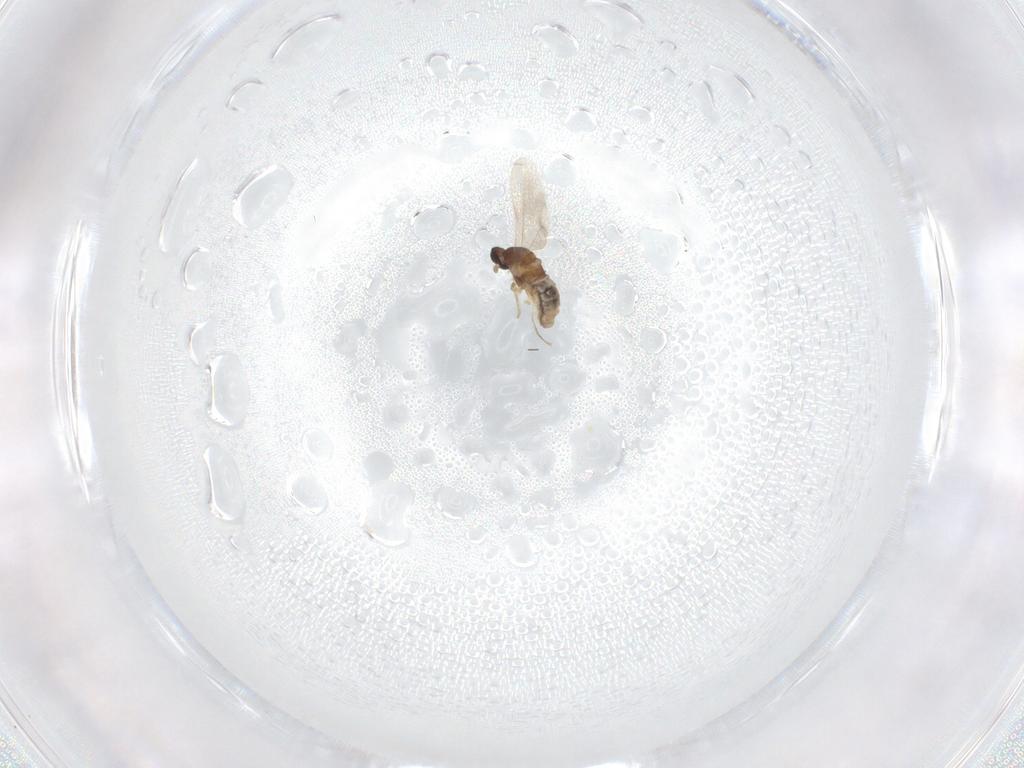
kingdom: Animalia
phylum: Arthropoda
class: Insecta
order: Diptera
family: Cecidomyiidae
